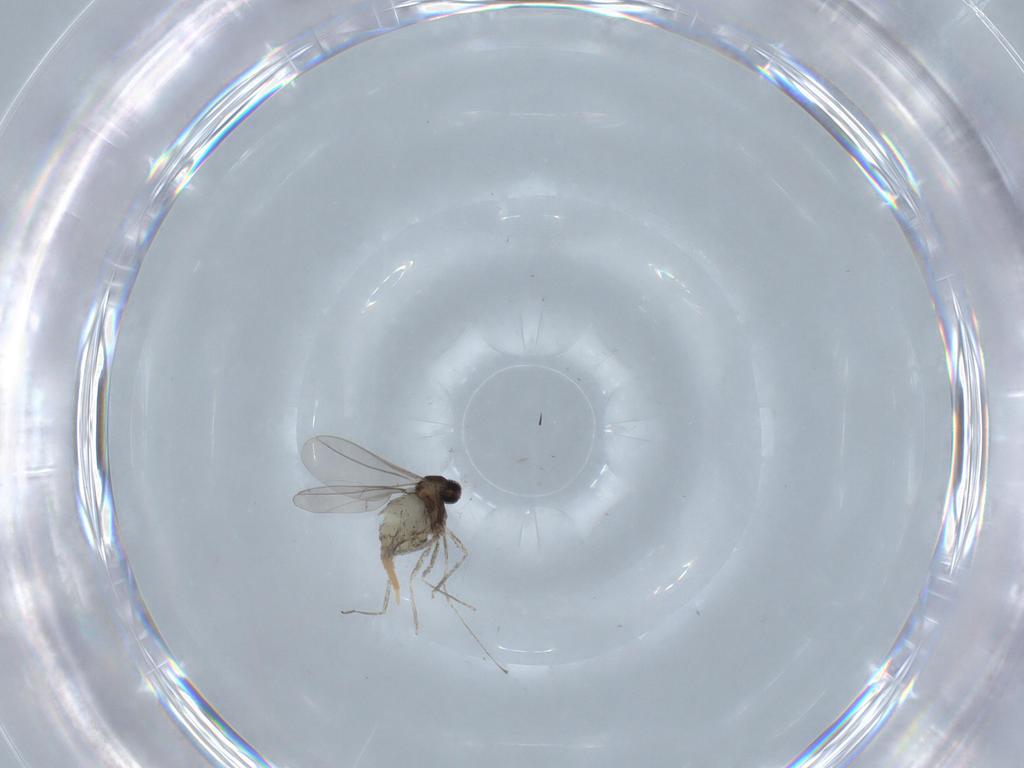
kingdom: Animalia
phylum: Arthropoda
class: Insecta
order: Diptera
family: Cecidomyiidae
